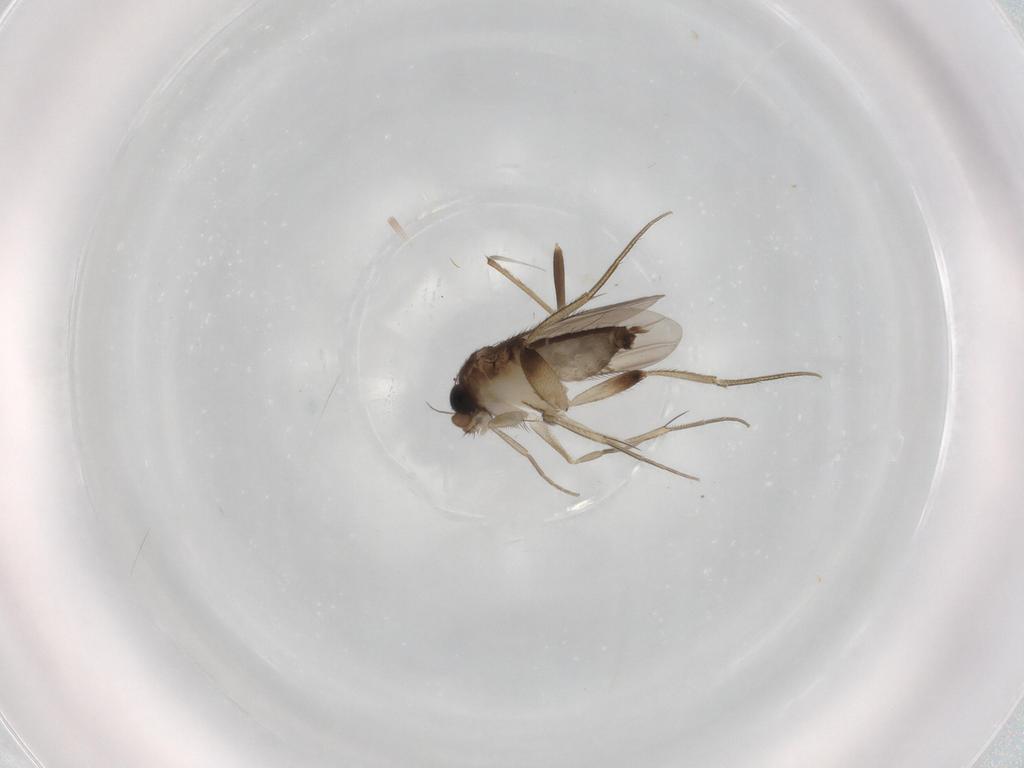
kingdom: Animalia
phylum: Arthropoda
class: Insecta
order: Diptera
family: Phoridae
